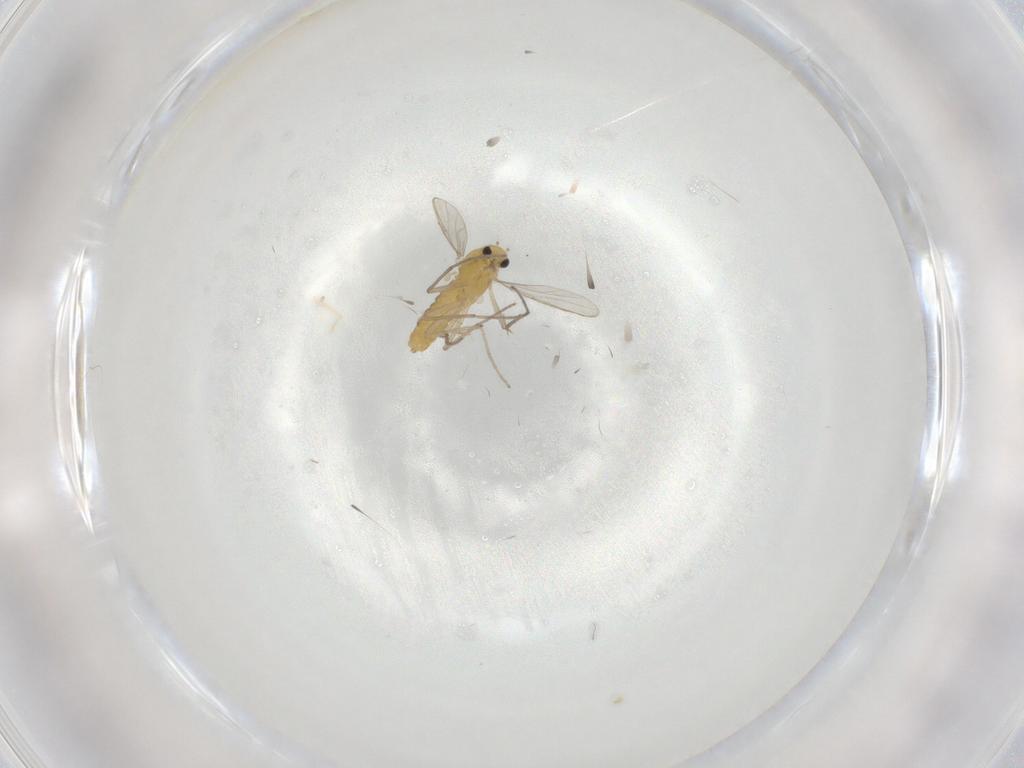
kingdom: Animalia
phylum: Arthropoda
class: Insecta
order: Diptera
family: Chironomidae
